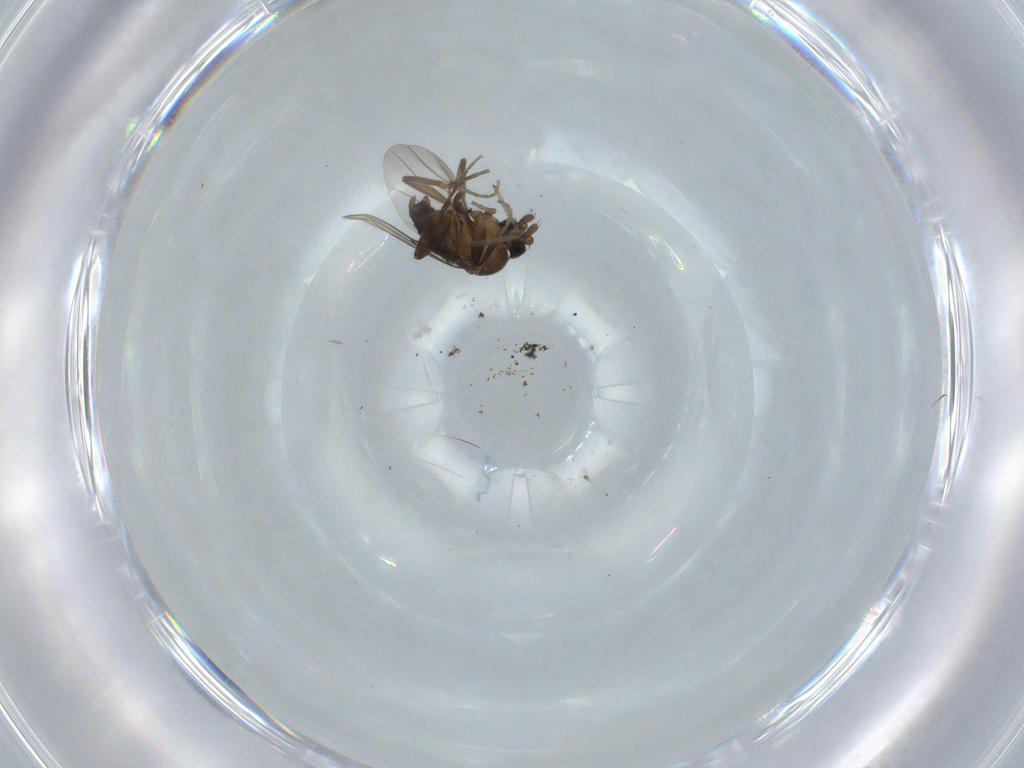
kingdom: Animalia
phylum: Arthropoda
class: Insecta
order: Diptera
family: Phoridae
